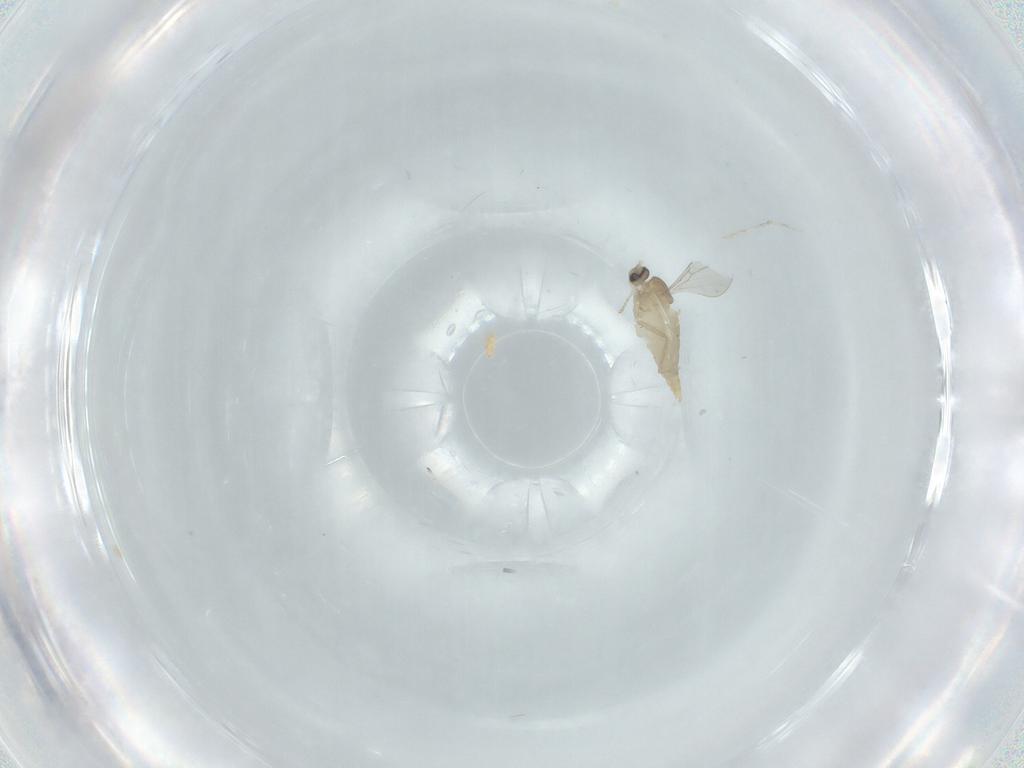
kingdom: Animalia
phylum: Arthropoda
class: Insecta
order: Diptera
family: Cecidomyiidae
